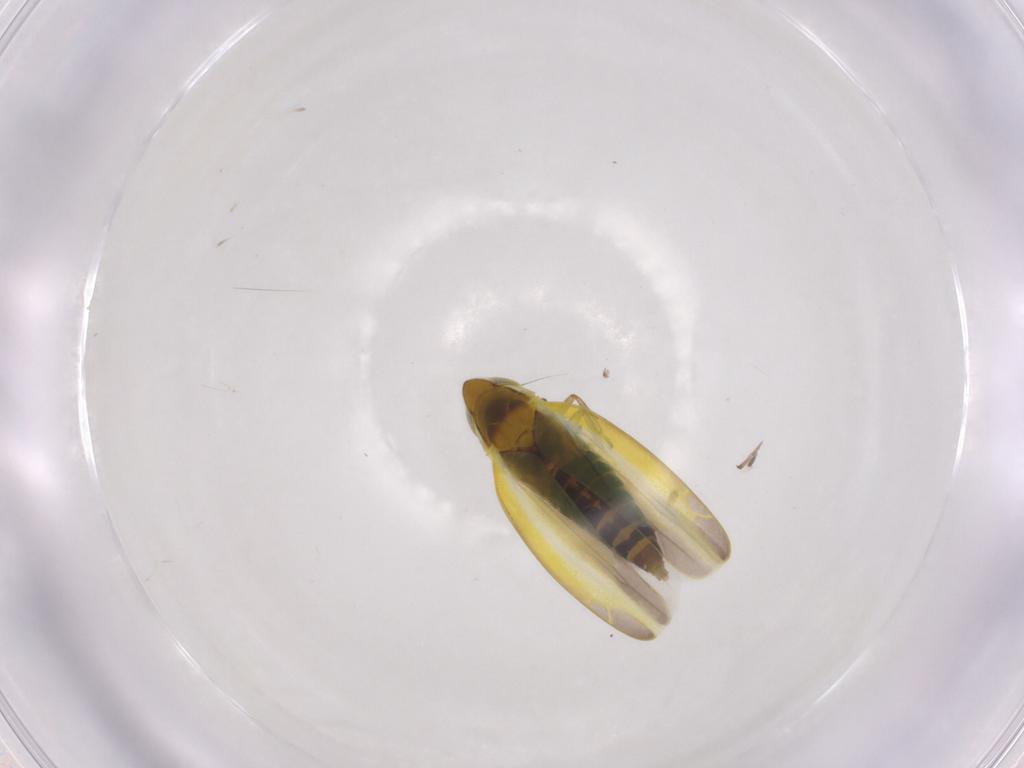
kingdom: Animalia
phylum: Arthropoda
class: Insecta
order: Hemiptera
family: Cicadellidae
